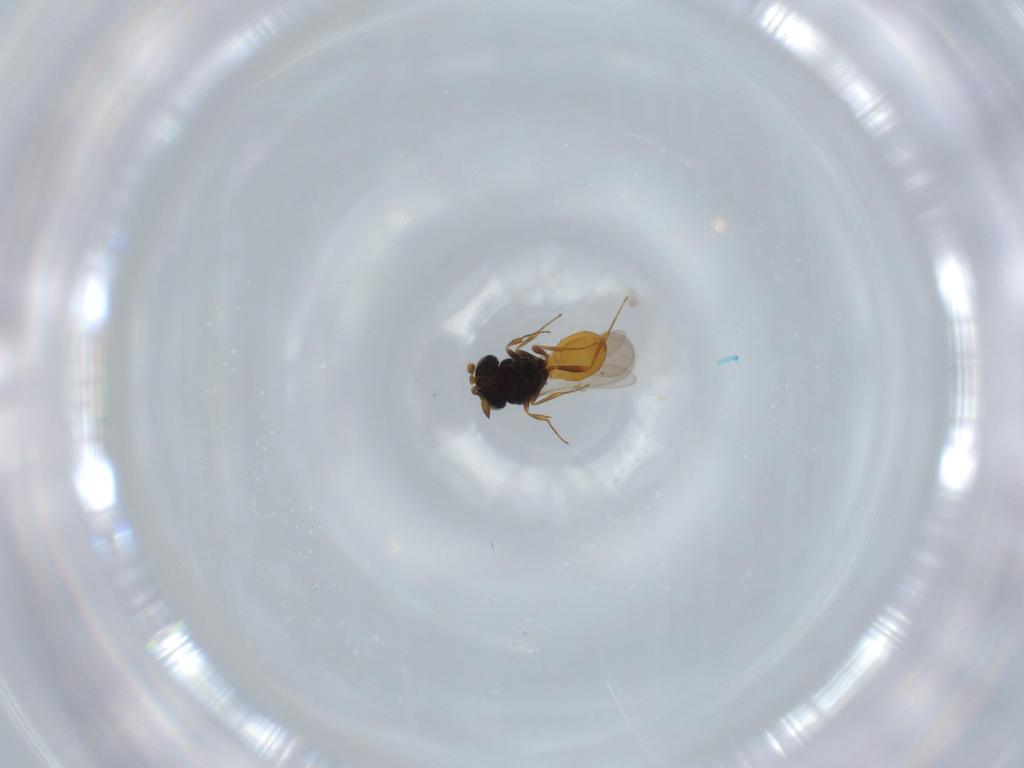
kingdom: Animalia
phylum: Arthropoda
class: Insecta
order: Hymenoptera
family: Scelionidae
